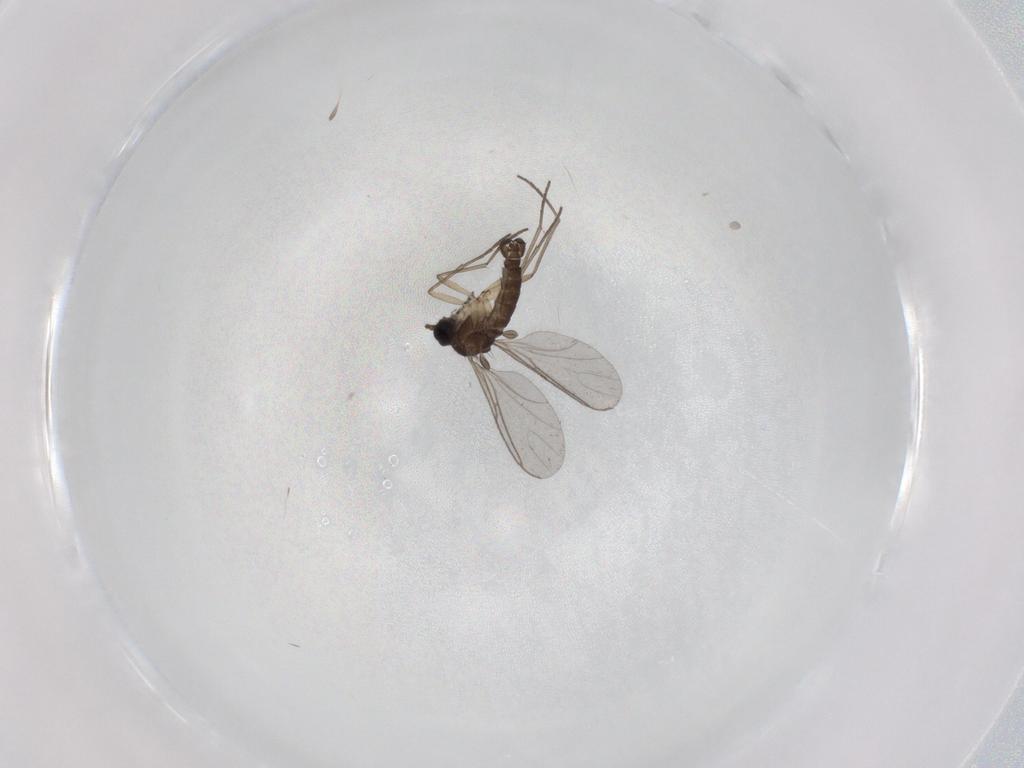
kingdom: Animalia
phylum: Arthropoda
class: Insecta
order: Diptera
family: Sciaridae
